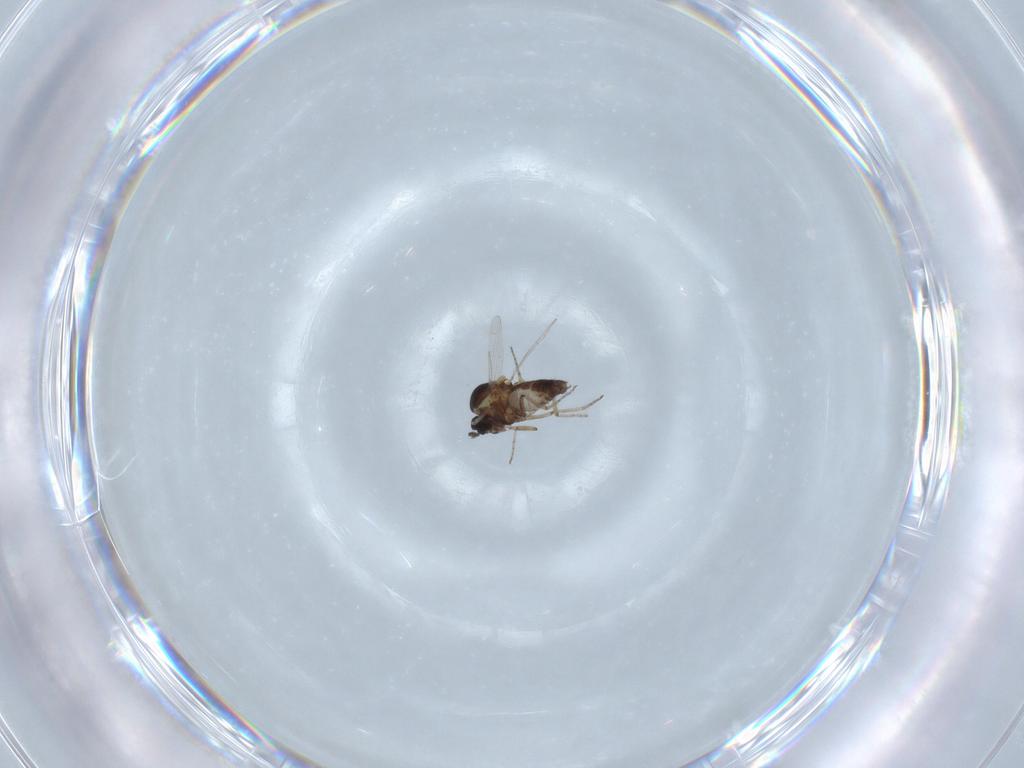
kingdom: Animalia
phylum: Arthropoda
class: Insecta
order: Diptera
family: Ceratopogonidae
